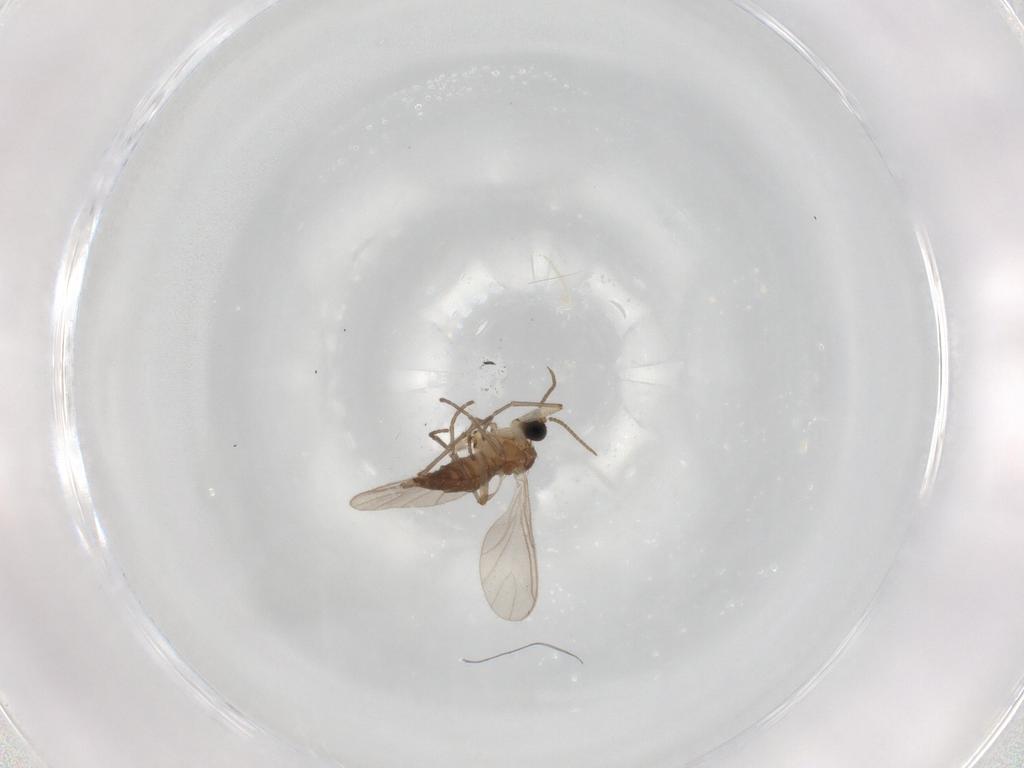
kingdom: Animalia
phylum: Arthropoda
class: Insecta
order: Diptera
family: Sciaridae
